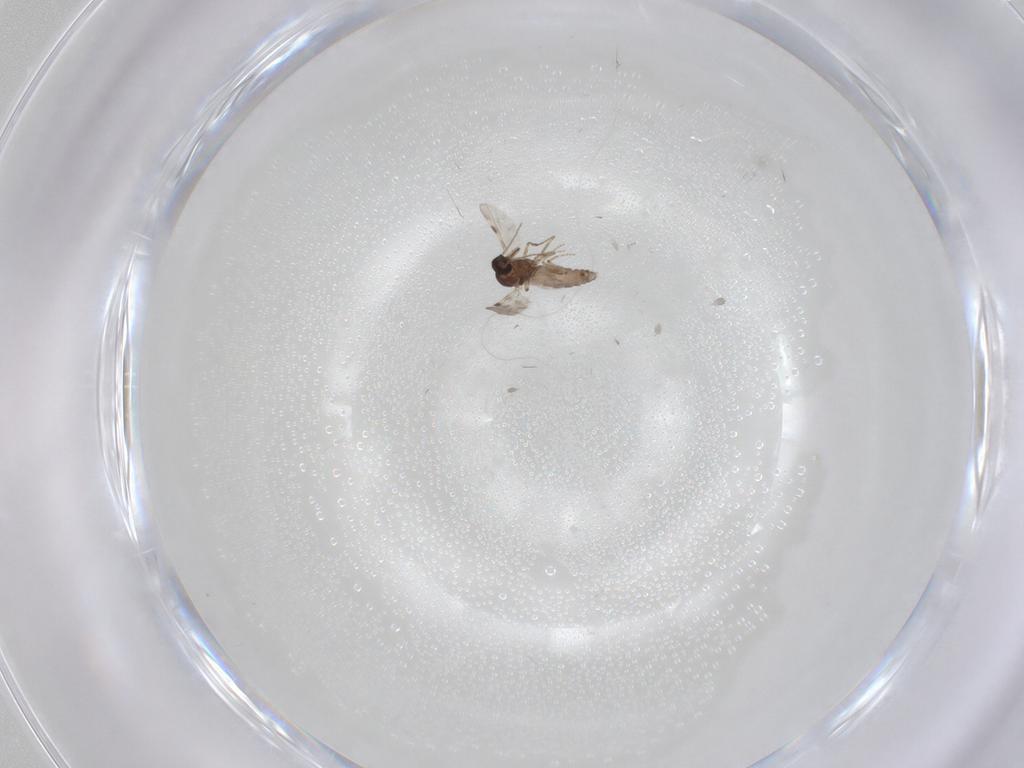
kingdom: Animalia
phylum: Arthropoda
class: Insecta
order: Diptera
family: Cecidomyiidae
